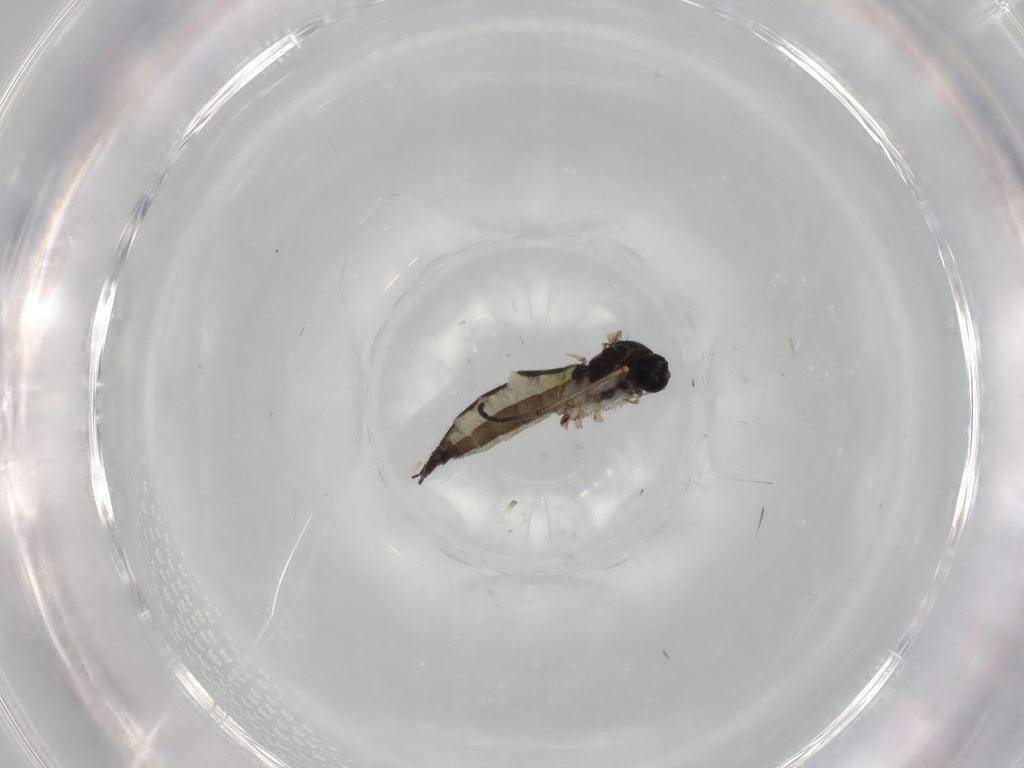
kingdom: Animalia
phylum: Arthropoda
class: Insecta
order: Diptera
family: Sciaridae
